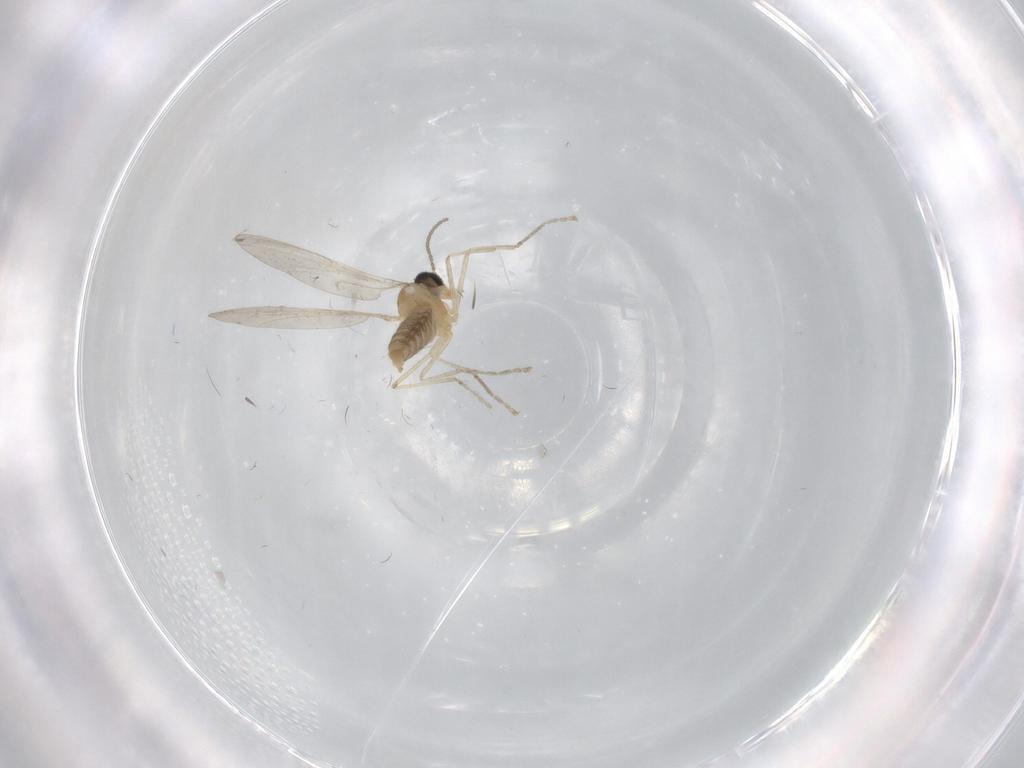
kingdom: Animalia
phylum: Arthropoda
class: Insecta
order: Diptera
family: Cecidomyiidae
